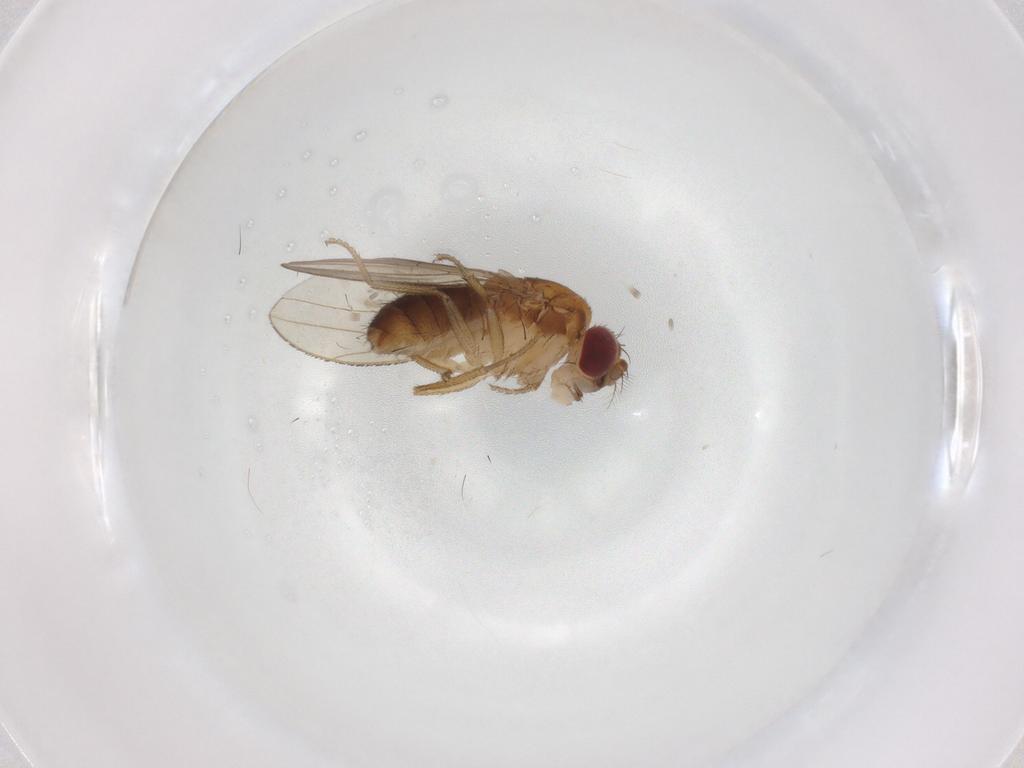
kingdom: Animalia
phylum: Arthropoda
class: Insecta
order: Diptera
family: Drosophilidae
